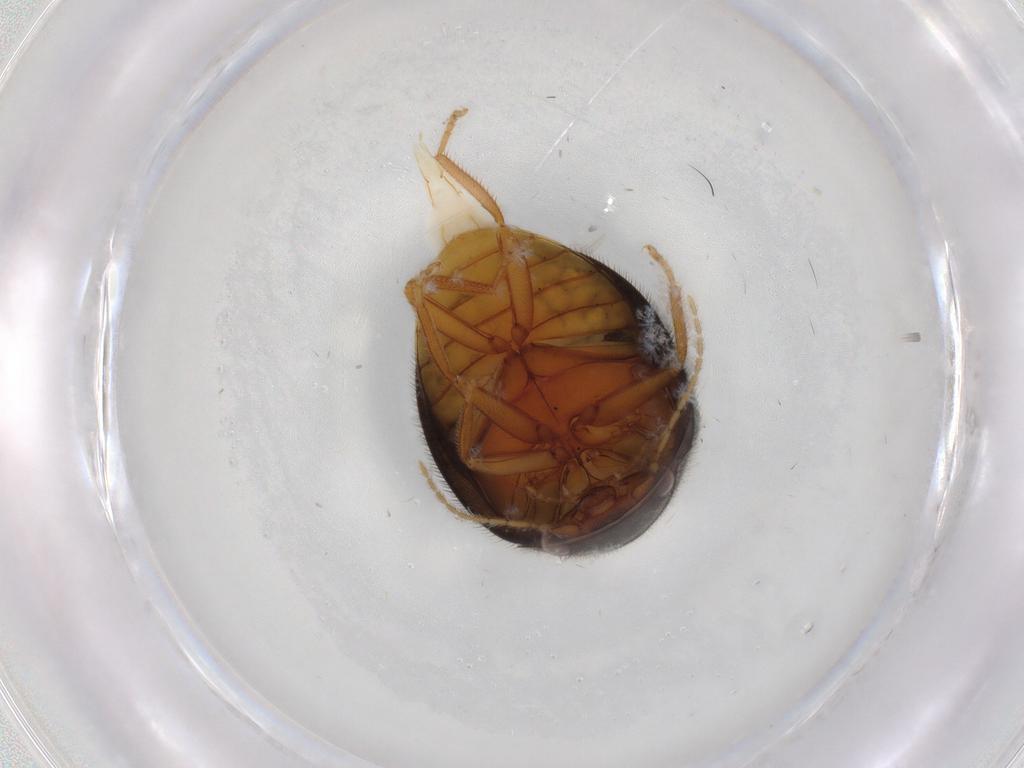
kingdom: Animalia
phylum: Arthropoda
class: Insecta
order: Coleoptera
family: Scirtidae
